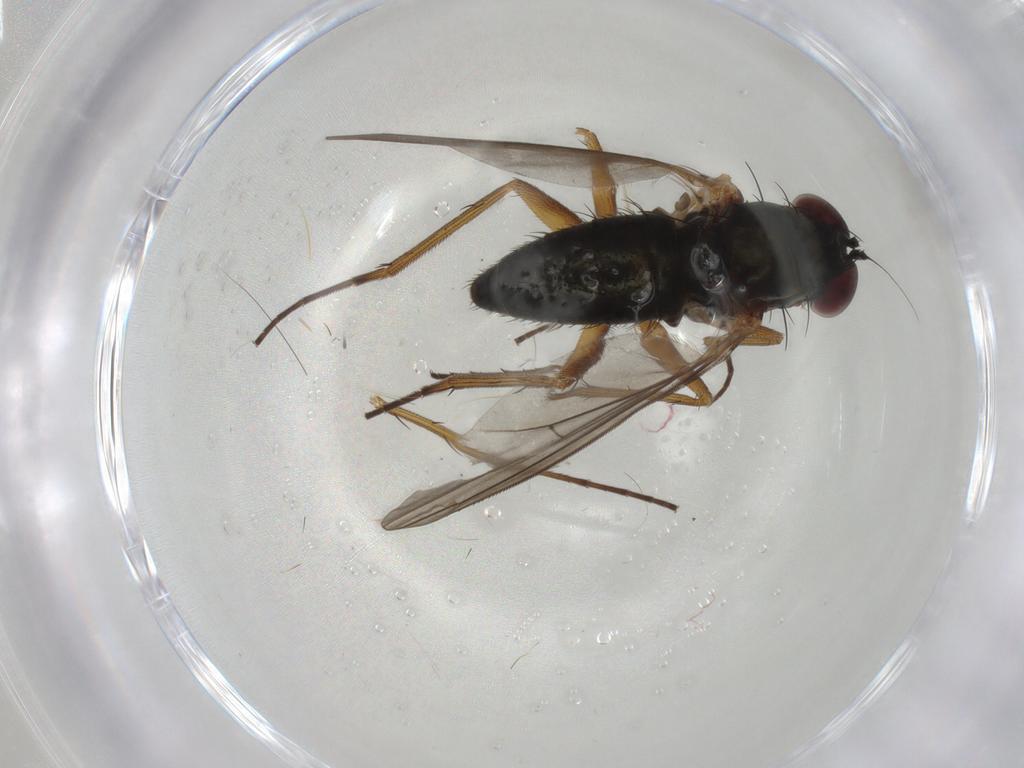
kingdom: Animalia
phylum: Arthropoda
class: Insecta
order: Diptera
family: Dolichopodidae
